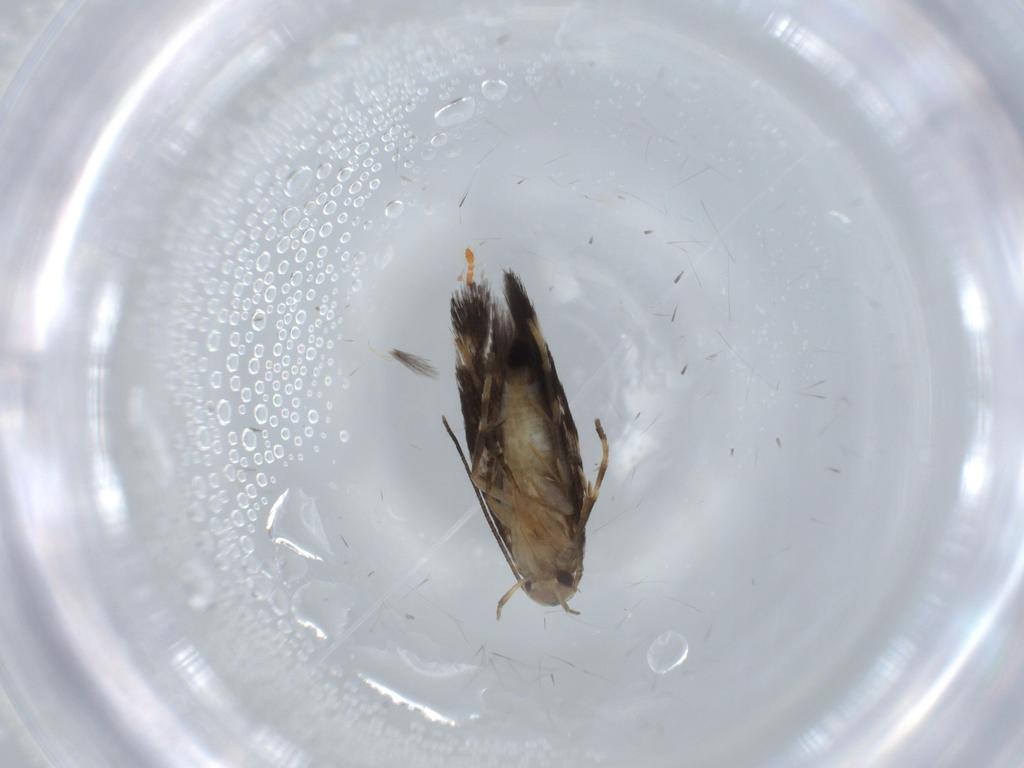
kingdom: Animalia
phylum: Arthropoda
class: Insecta
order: Lepidoptera
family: Cosmopterigidae
